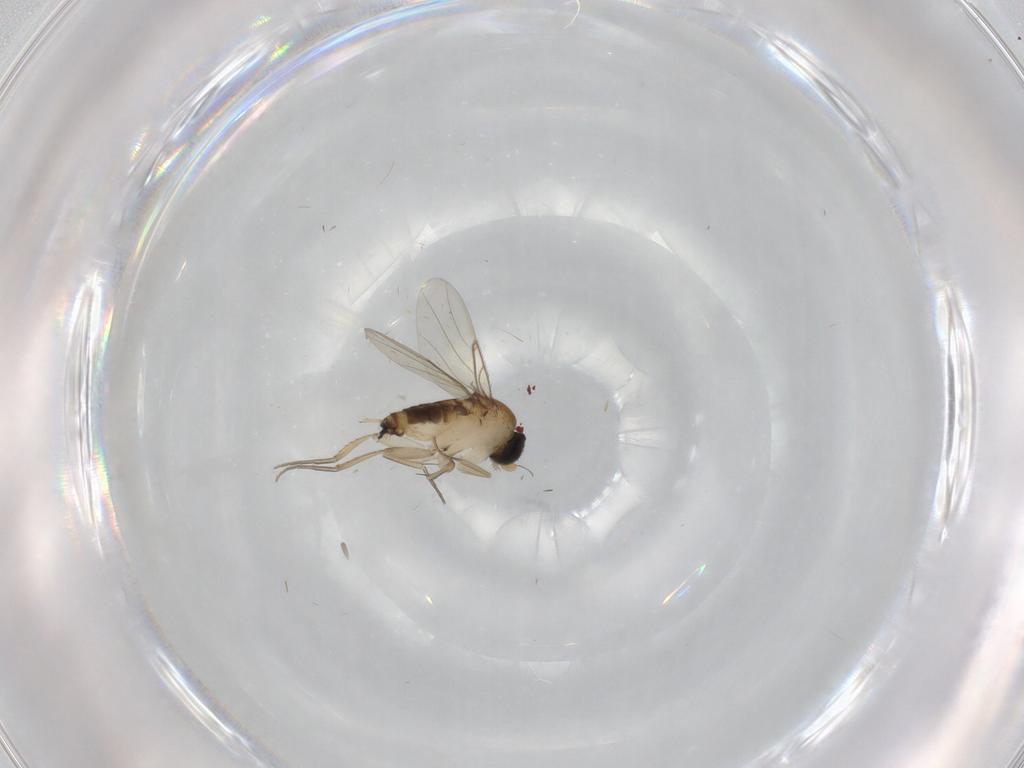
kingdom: Animalia
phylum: Arthropoda
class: Insecta
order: Diptera
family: Phoridae
